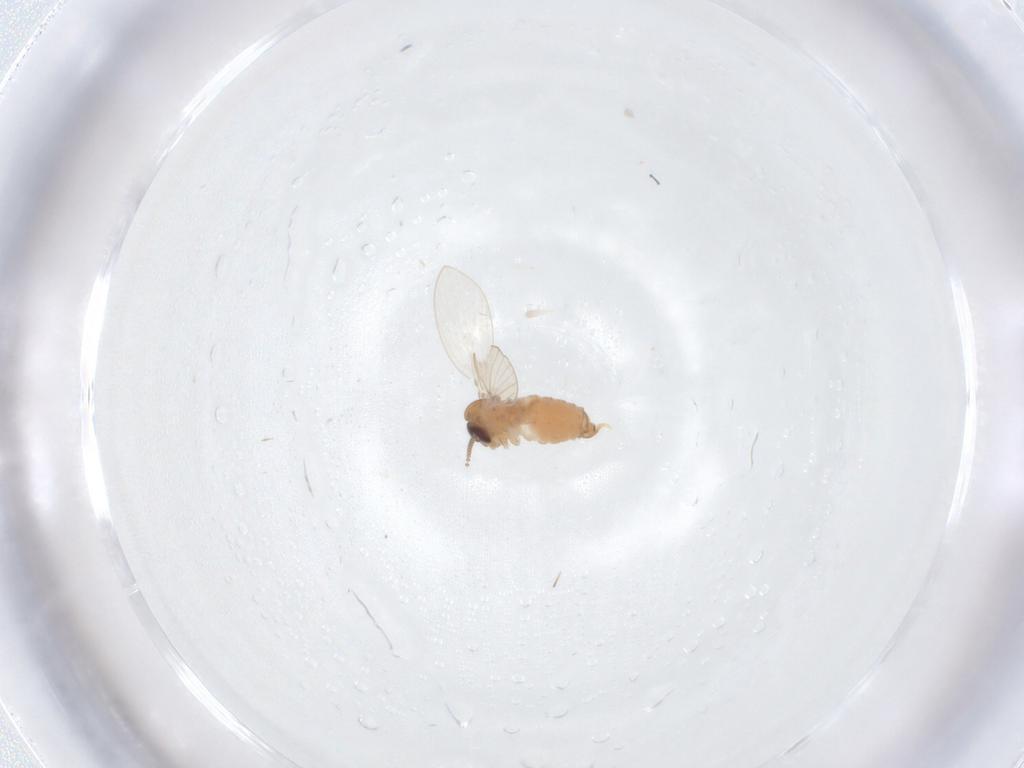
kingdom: Animalia
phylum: Arthropoda
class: Insecta
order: Diptera
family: Psychodidae
